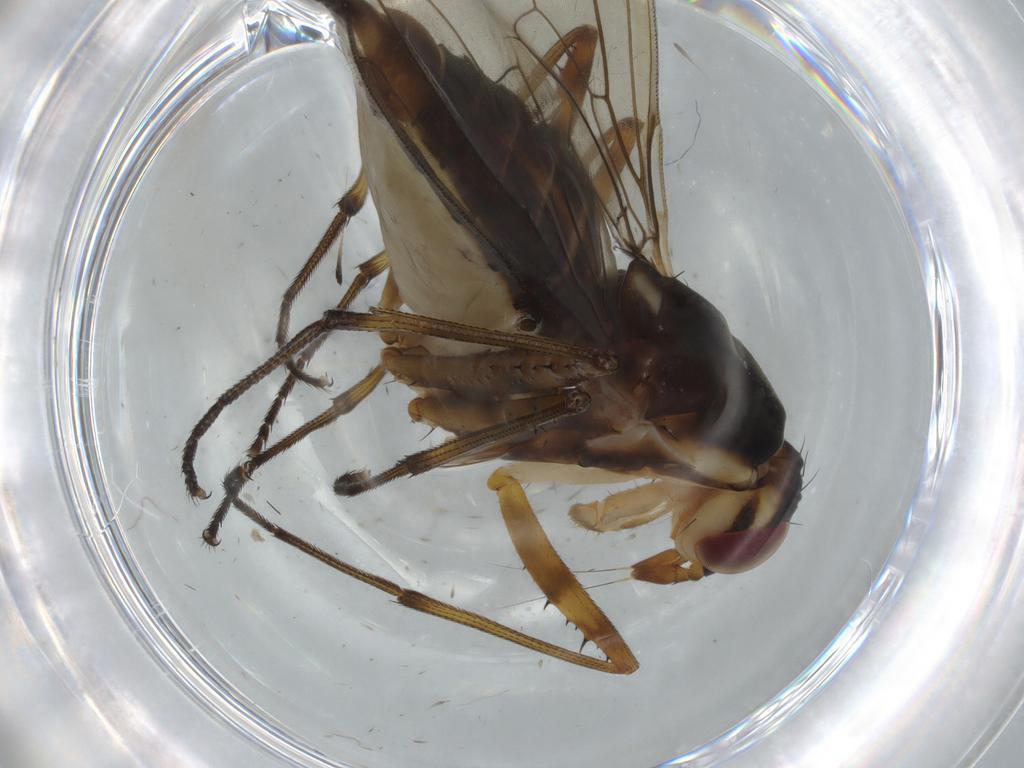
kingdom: Animalia
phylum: Arthropoda
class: Insecta
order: Diptera
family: Neriidae
